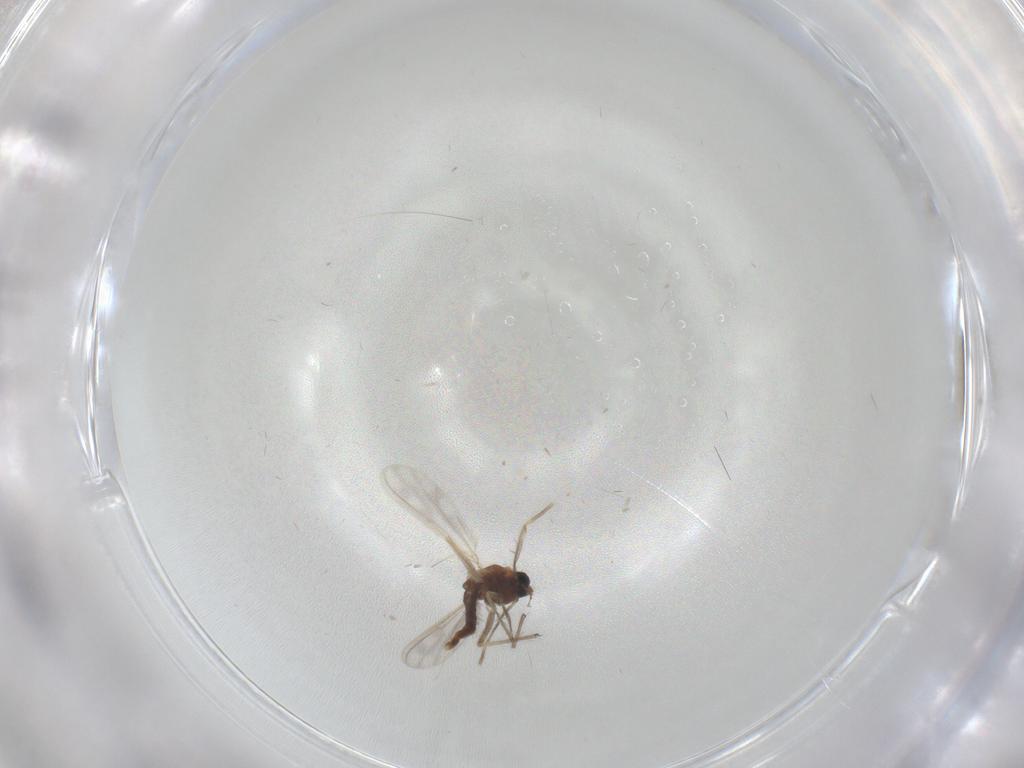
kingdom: Animalia
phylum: Arthropoda
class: Insecta
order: Diptera
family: Chironomidae
